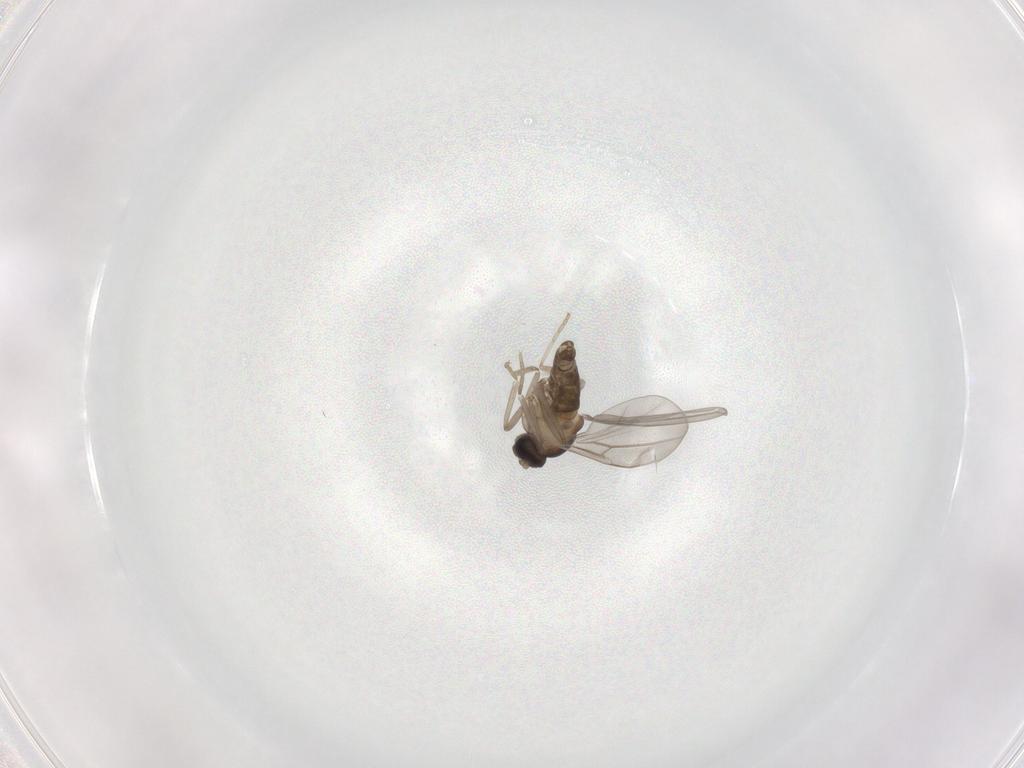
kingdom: Animalia
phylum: Arthropoda
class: Insecta
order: Diptera
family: Cecidomyiidae
